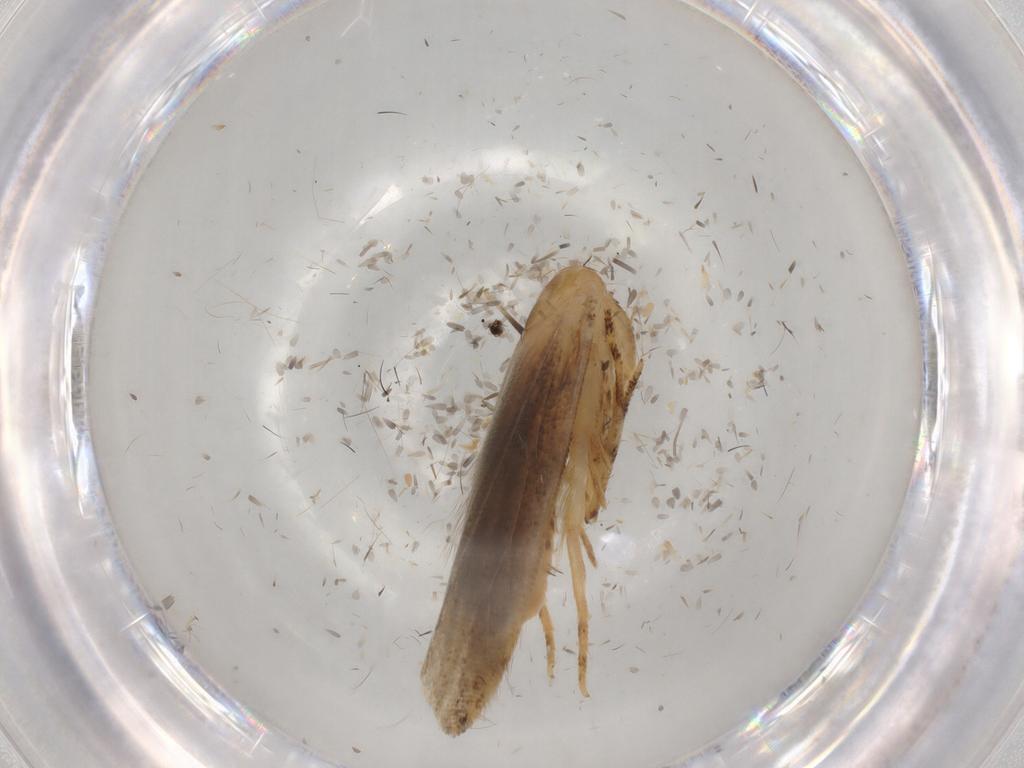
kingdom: Animalia
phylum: Arthropoda
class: Insecta
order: Lepidoptera
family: Gelechiidae
